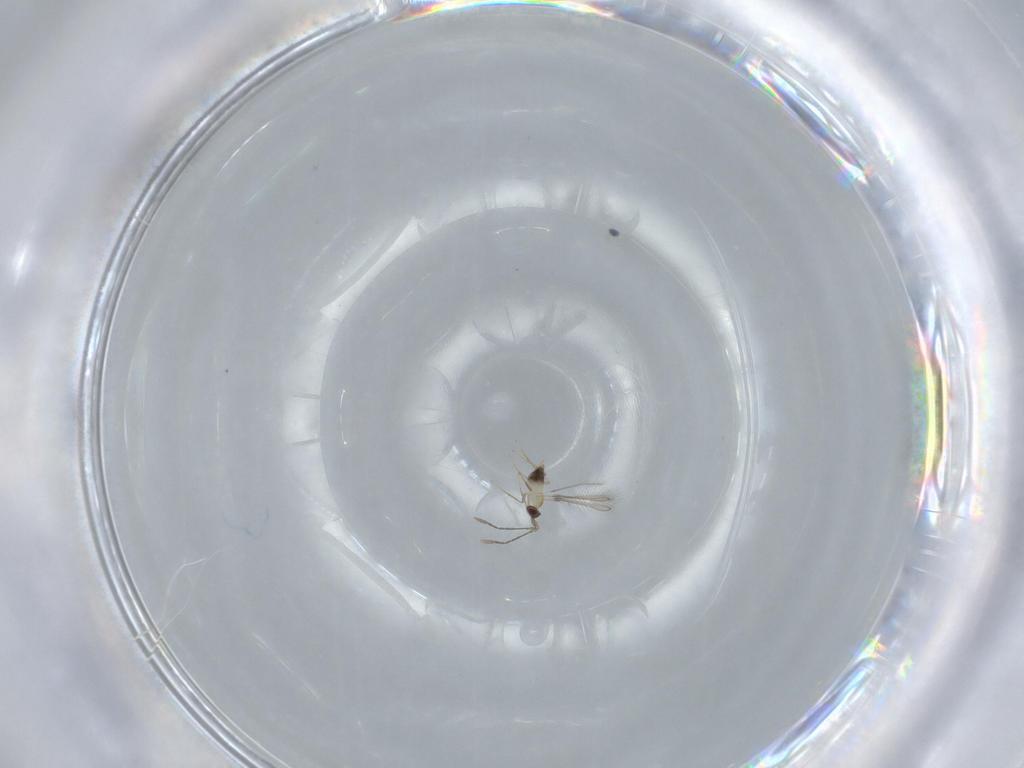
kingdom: Animalia
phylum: Arthropoda
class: Insecta
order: Hymenoptera
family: Mymaridae
